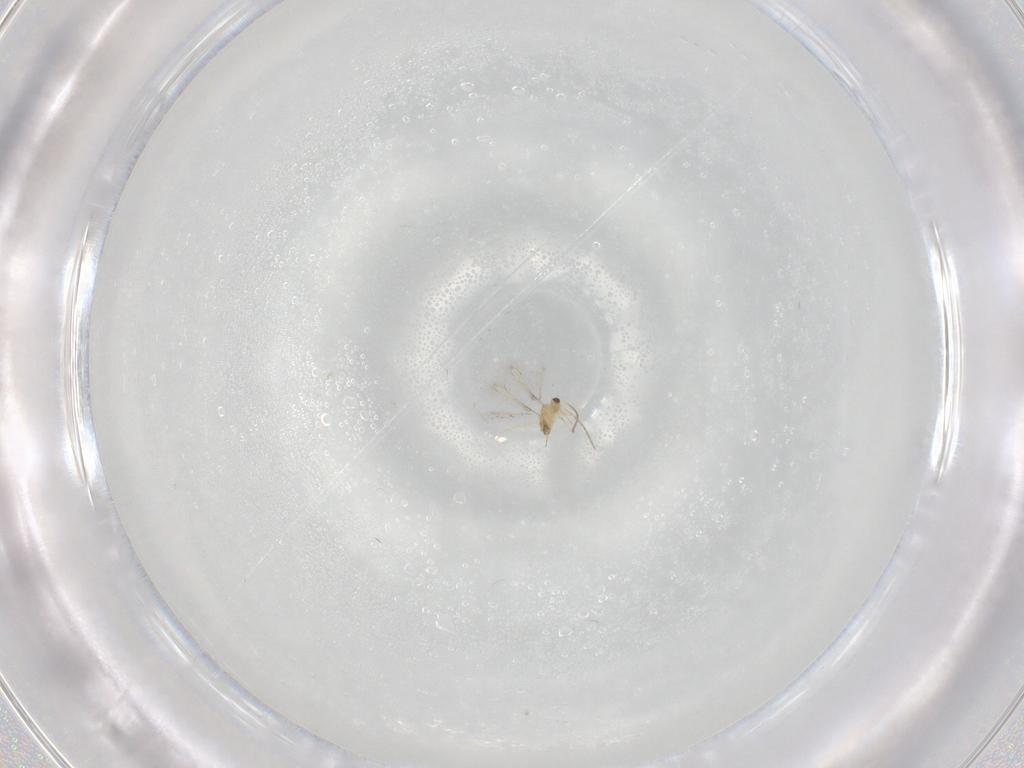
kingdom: Animalia
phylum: Arthropoda
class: Insecta
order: Hymenoptera
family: Mymaridae
